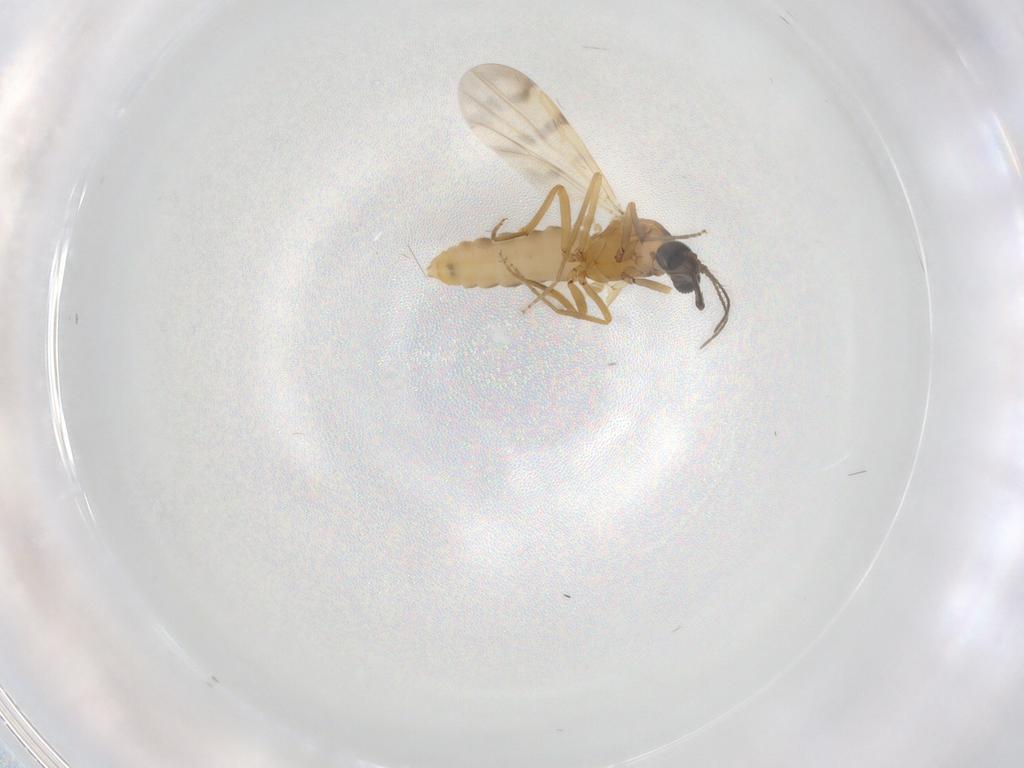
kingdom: Animalia
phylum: Arthropoda
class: Insecta
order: Diptera
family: Ceratopogonidae
